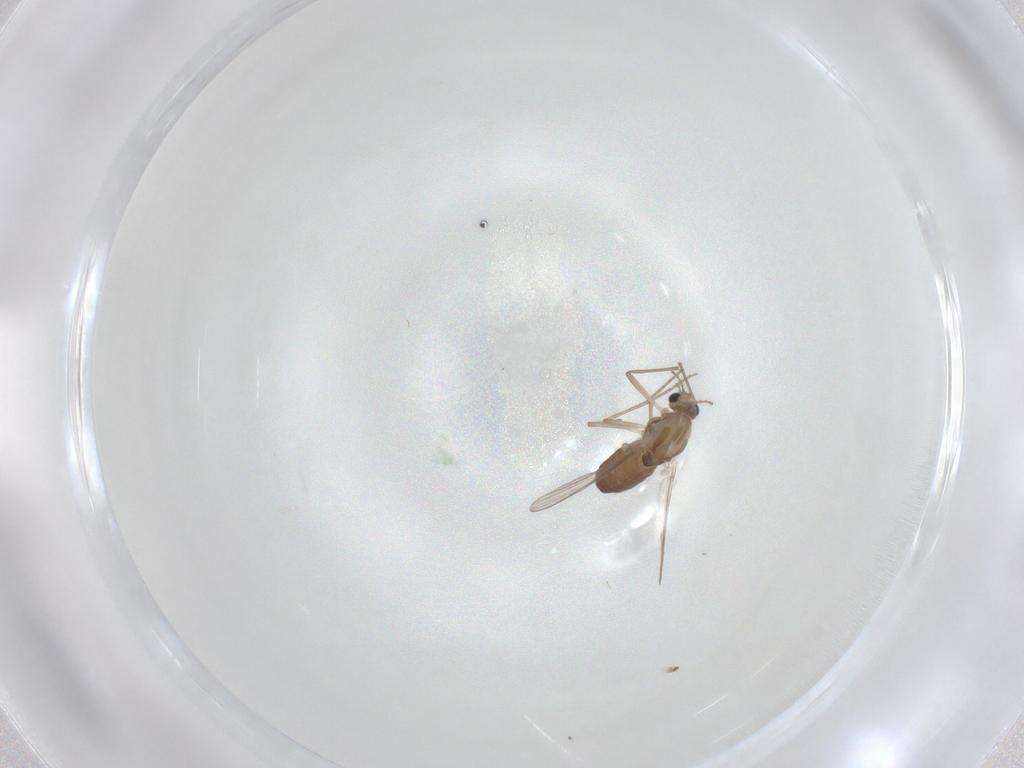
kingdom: Animalia
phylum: Arthropoda
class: Insecta
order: Diptera
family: Chironomidae
